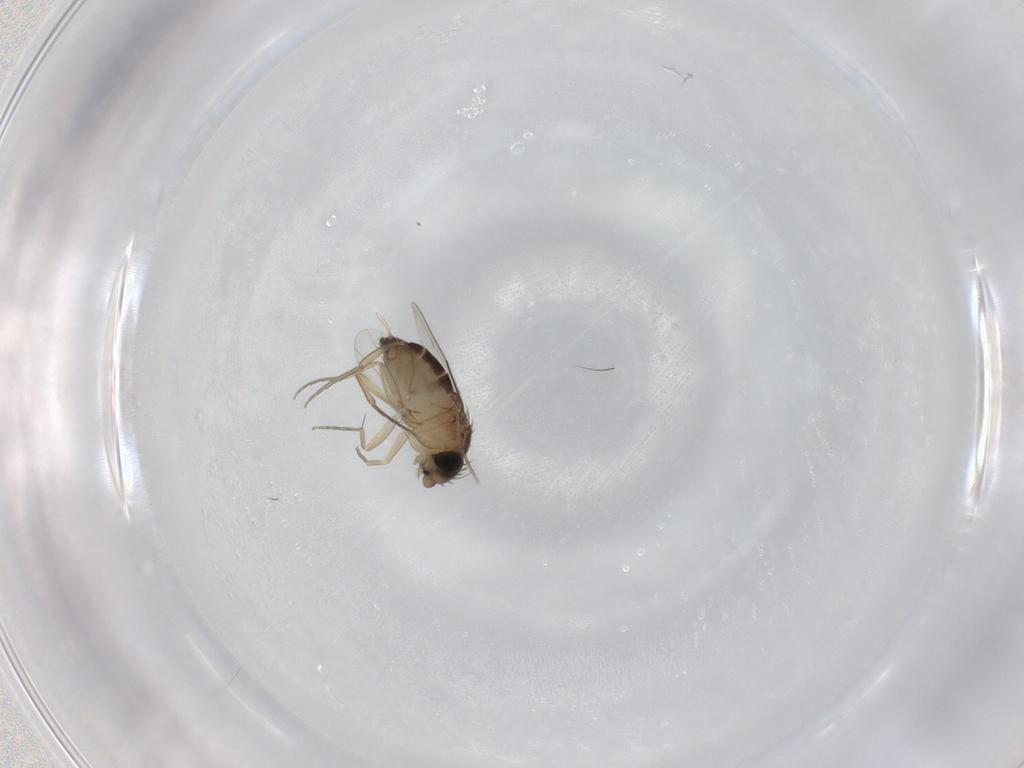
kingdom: Animalia
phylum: Arthropoda
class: Insecta
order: Diptera
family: Phoridae
